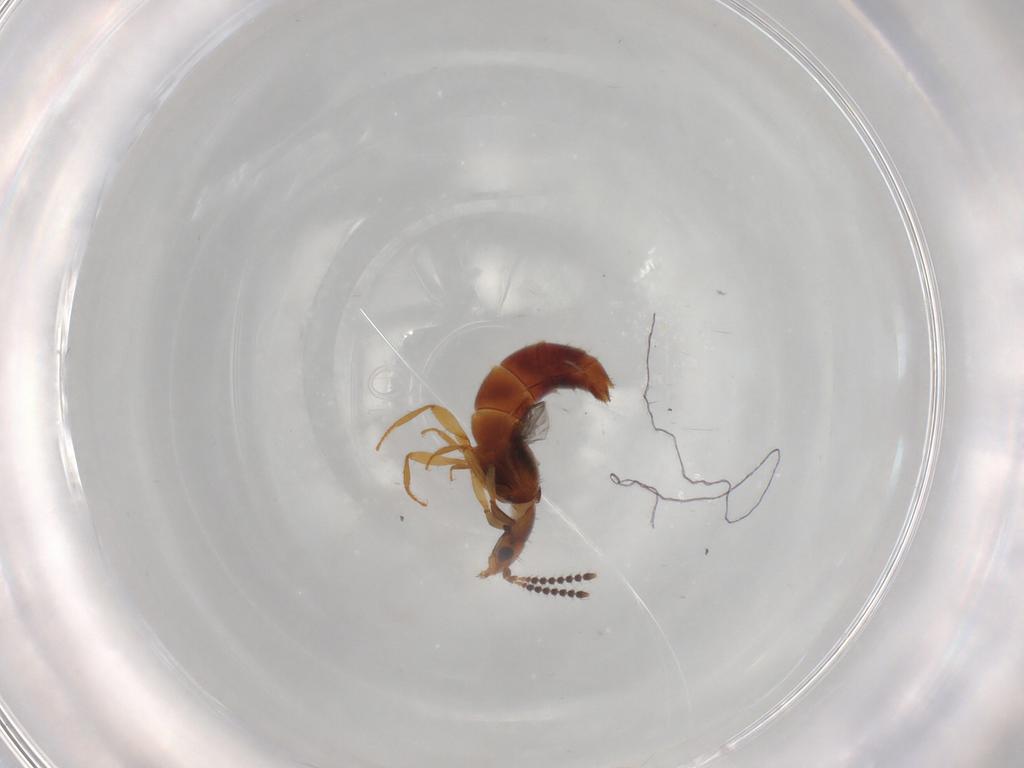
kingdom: Animalia
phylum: Arthropoda
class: Insecta
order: Coleoptera
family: Staphylinidae
